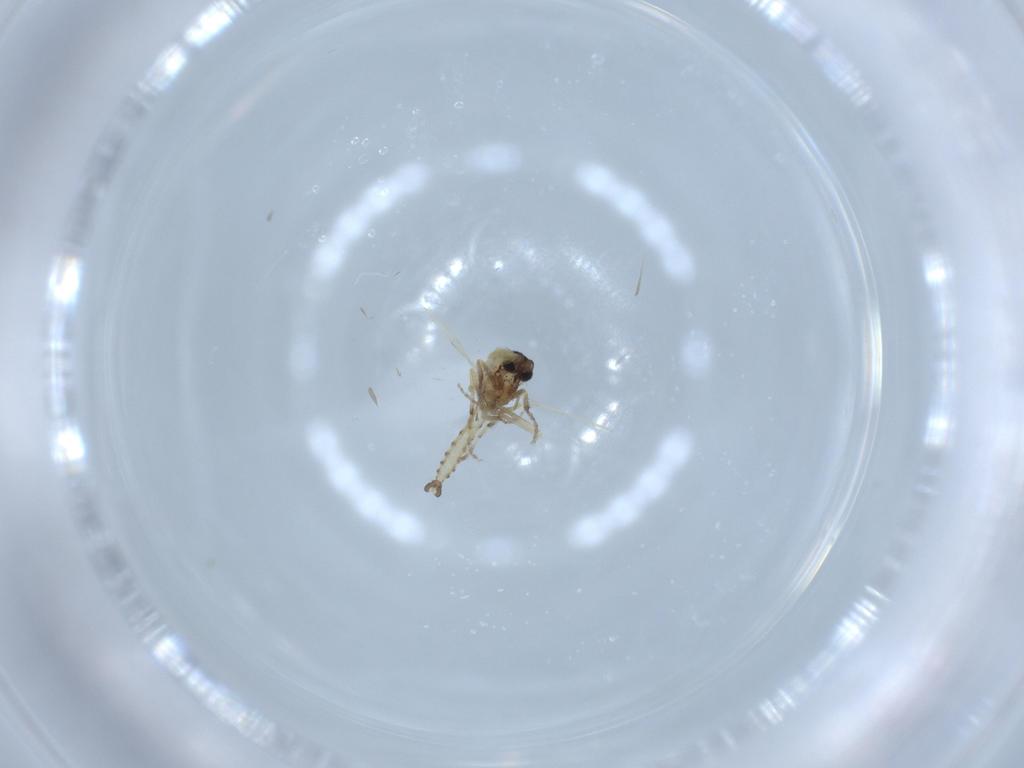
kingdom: Animalia
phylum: Arthropoda
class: Insecta
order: Diptera
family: Ceratopogonidae
